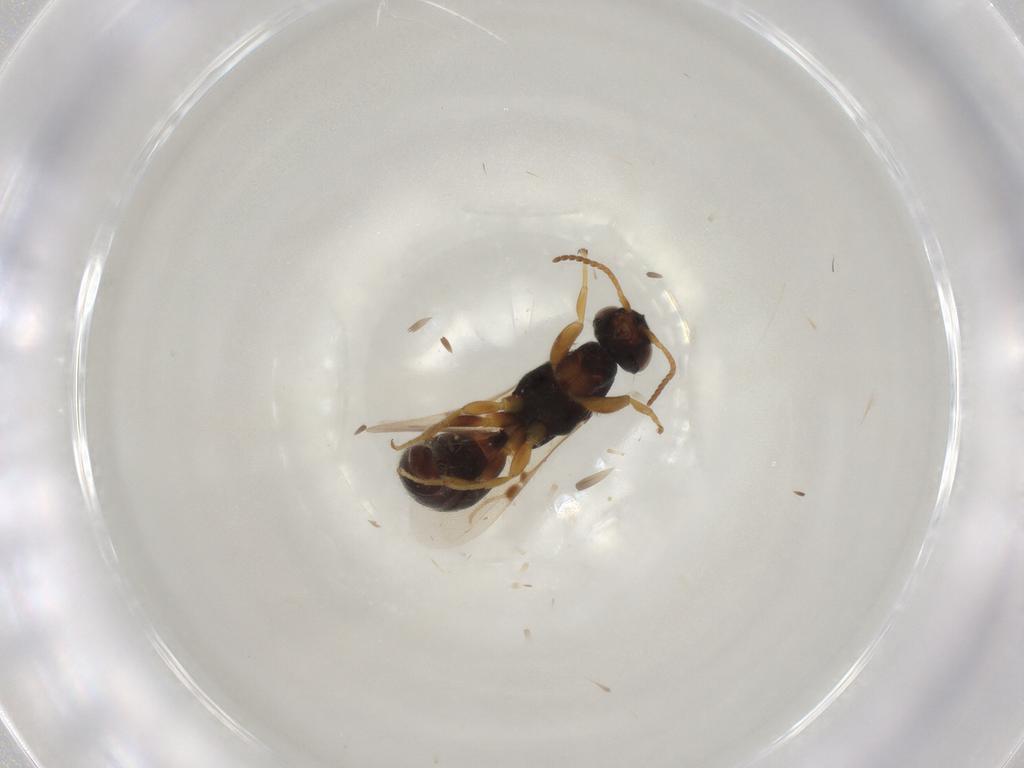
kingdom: Animalia
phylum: Arthropoda
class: Insecta
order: Hymenoptera
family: Bethylidae
